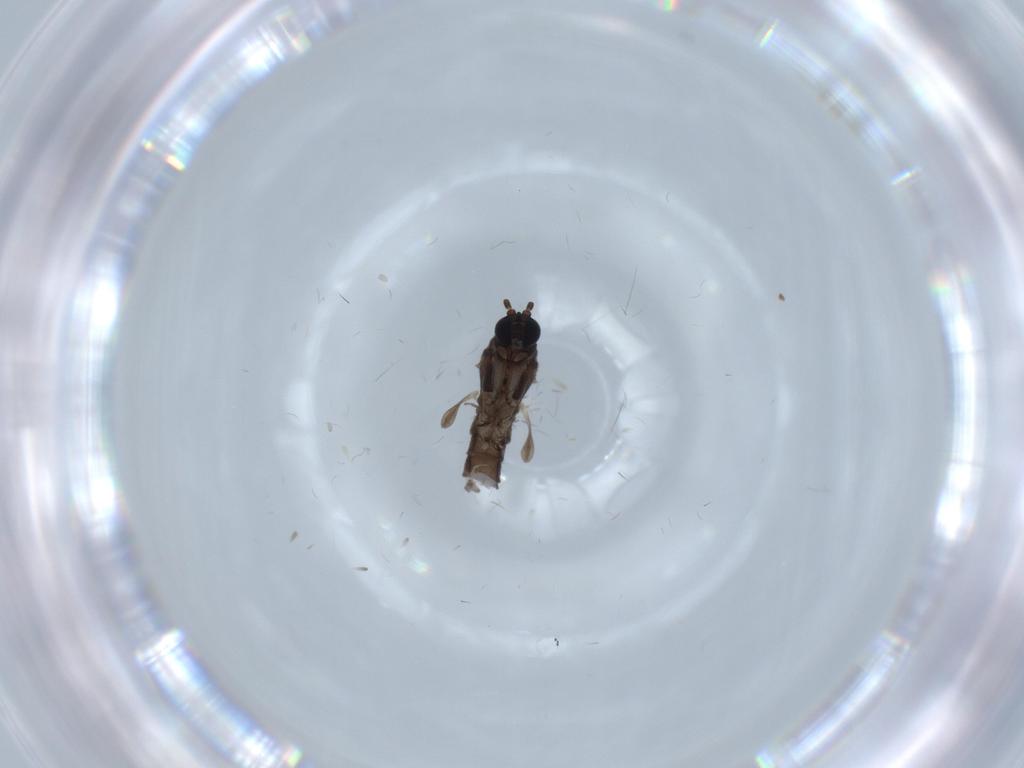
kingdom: Animalia
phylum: Arthropoda
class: Insecta
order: Diptera
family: Sciaridae
